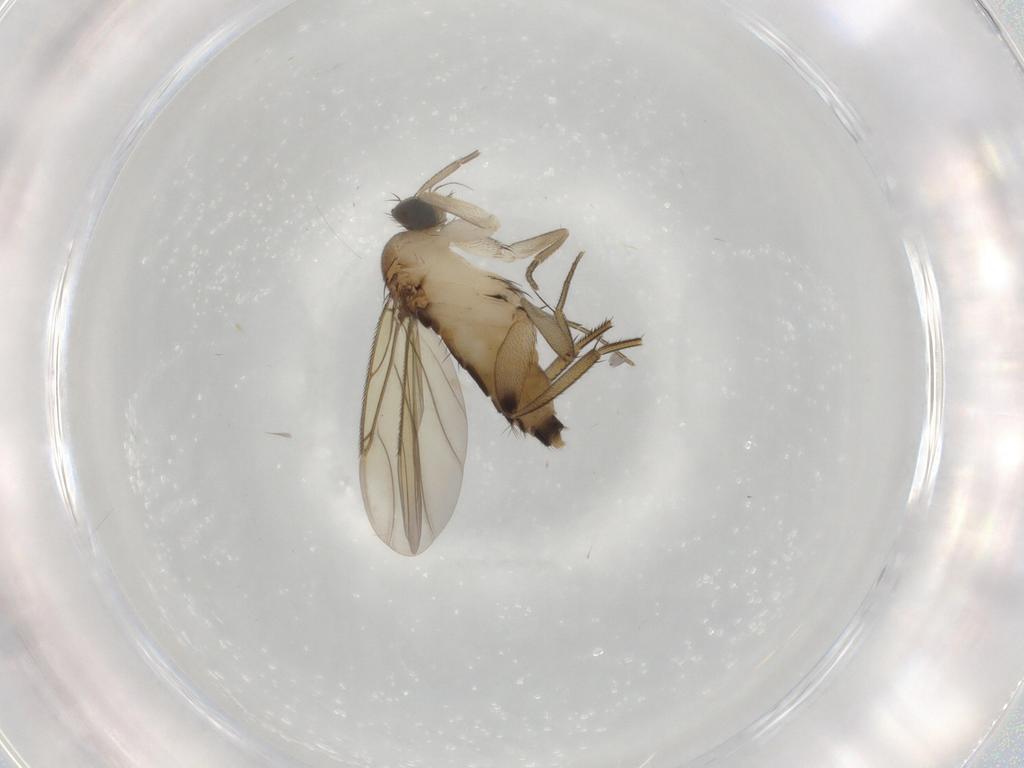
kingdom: Animalia
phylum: Arthropoda
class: Insecta
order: Diptera
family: Phoridae
